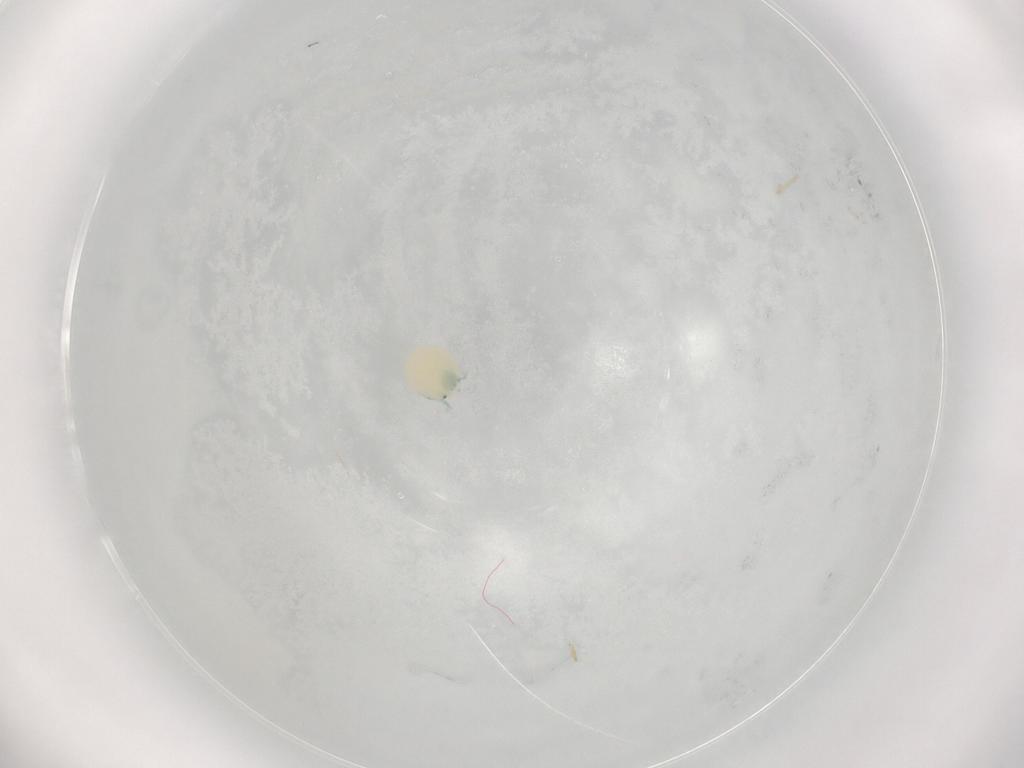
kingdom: Animalia
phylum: Arthropoda
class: Arachnida
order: Trombidiformes
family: Arrenuridae
